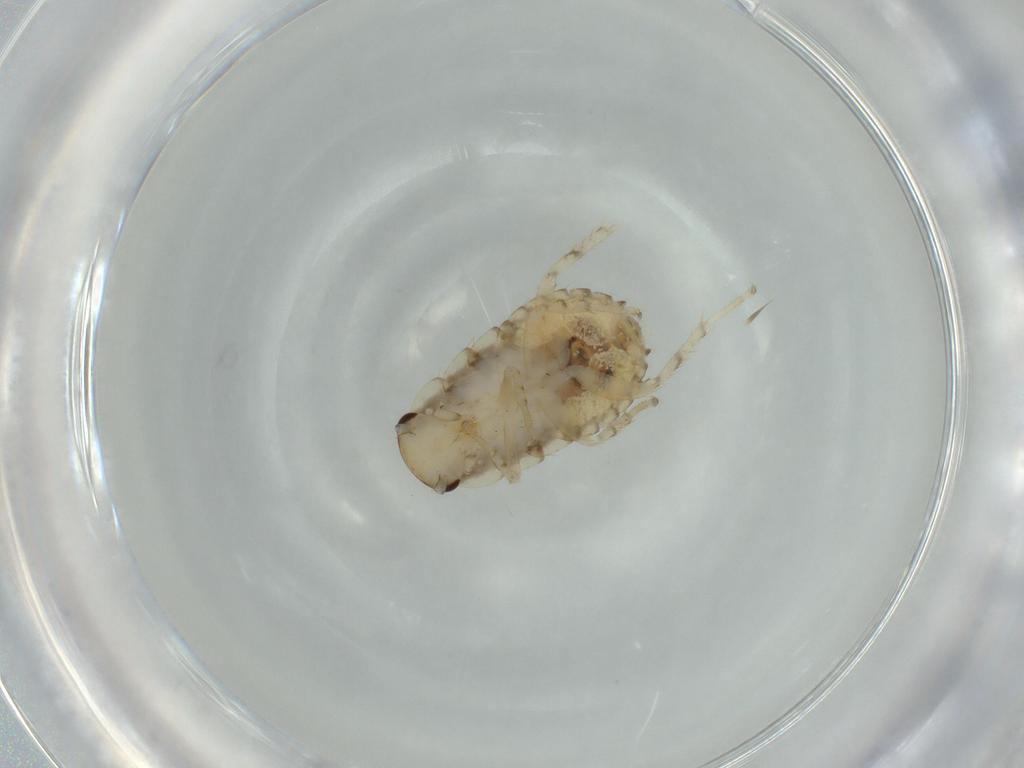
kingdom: Animalia
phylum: Arthropoda
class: Insecta
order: Blattodea
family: Ectobiidae
